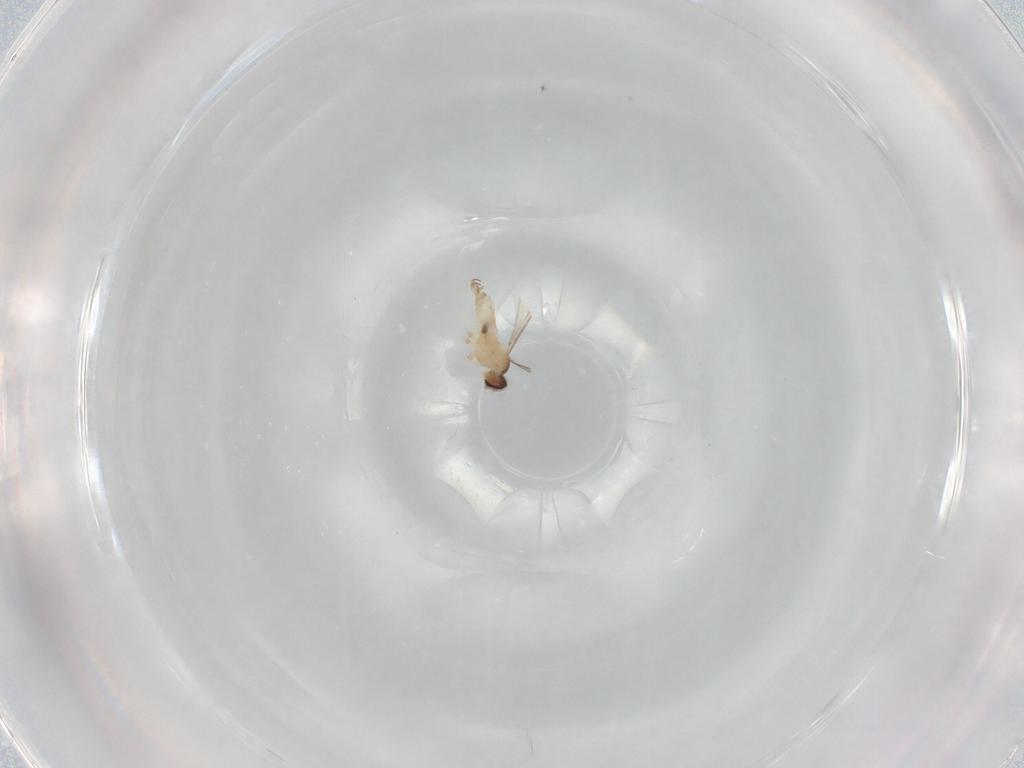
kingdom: Animalia
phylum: Arthropoda
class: Insecta
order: Diptera
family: Cecidomyiidae
